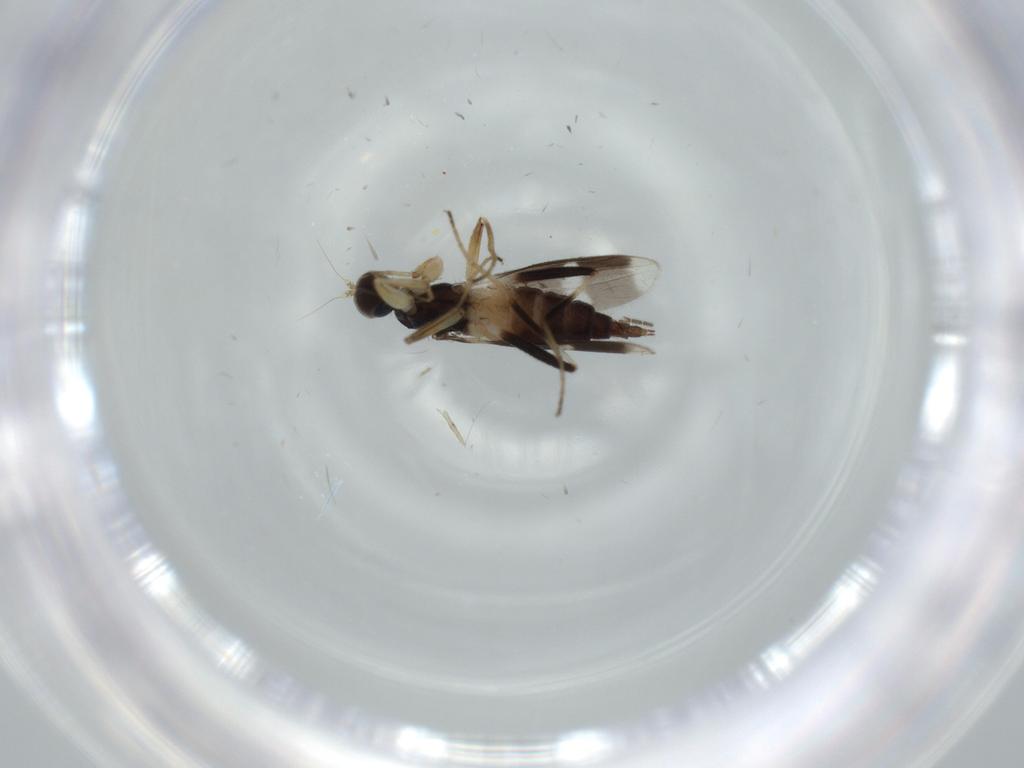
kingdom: Animalia
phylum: Arthropoda
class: Insecta
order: Diptera
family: Hybotidae
